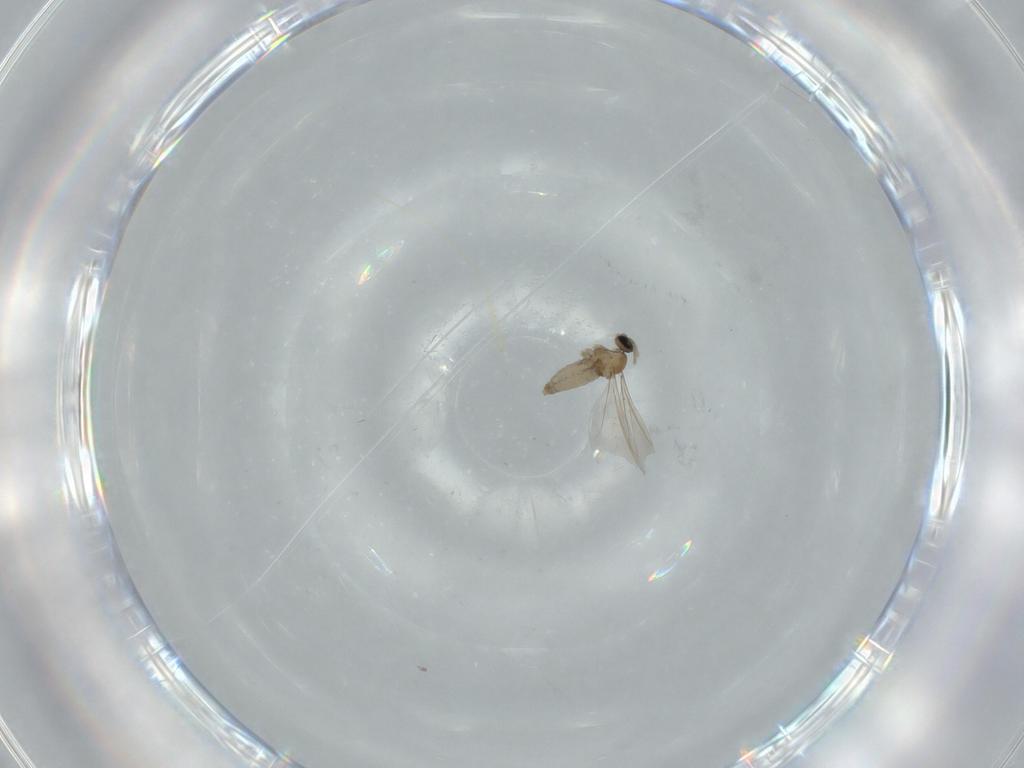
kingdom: Animalia
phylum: Arthropoda
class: Insecta
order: Diptera
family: Cecidomyiidae
